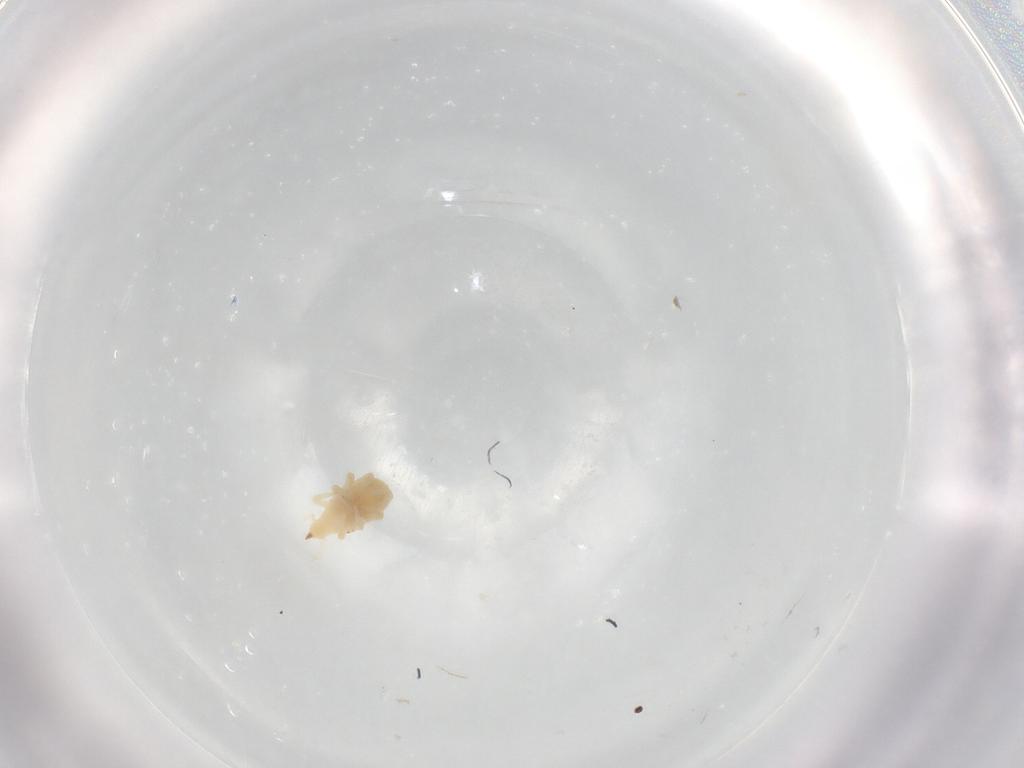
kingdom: Animalia
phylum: Arthropoda
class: Arachnida
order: Trombidiformes
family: Bdellidae
